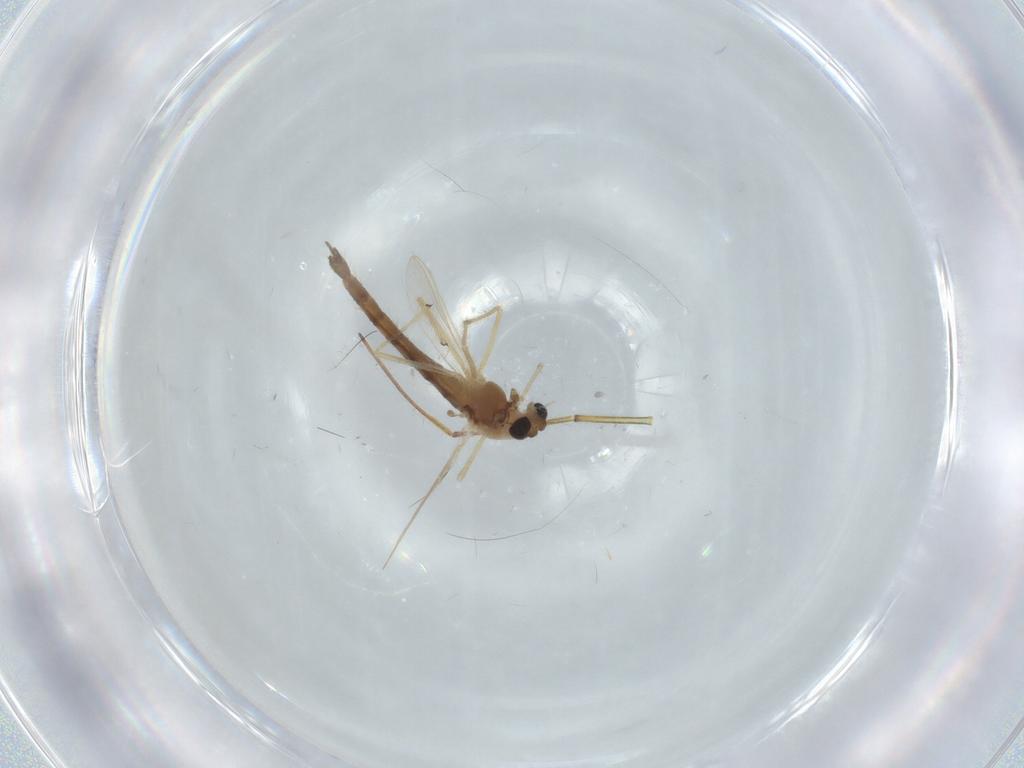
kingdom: Animalia
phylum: Arthropoda
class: Insecta
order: Diptera
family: Chironomidae
